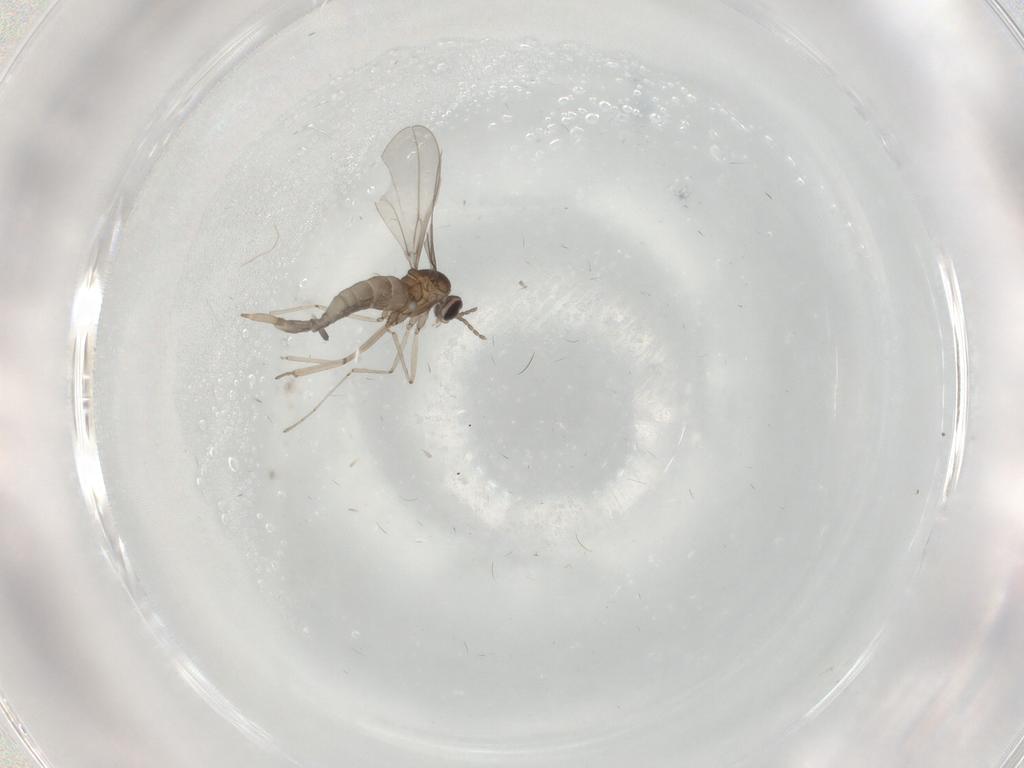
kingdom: Animalia
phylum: Arthropoda
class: Insecta
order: Diptera
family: Cecidomyiidae
